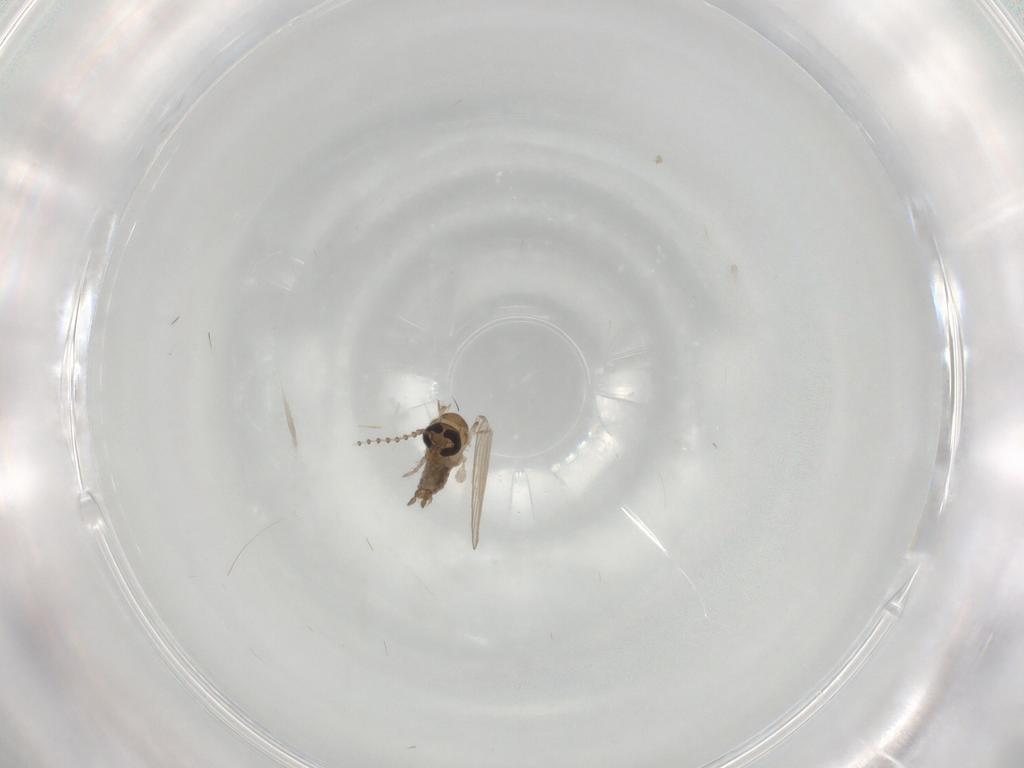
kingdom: Animalia
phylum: Arthropoda
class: Insecta
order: Diptera
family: Psychodidae
